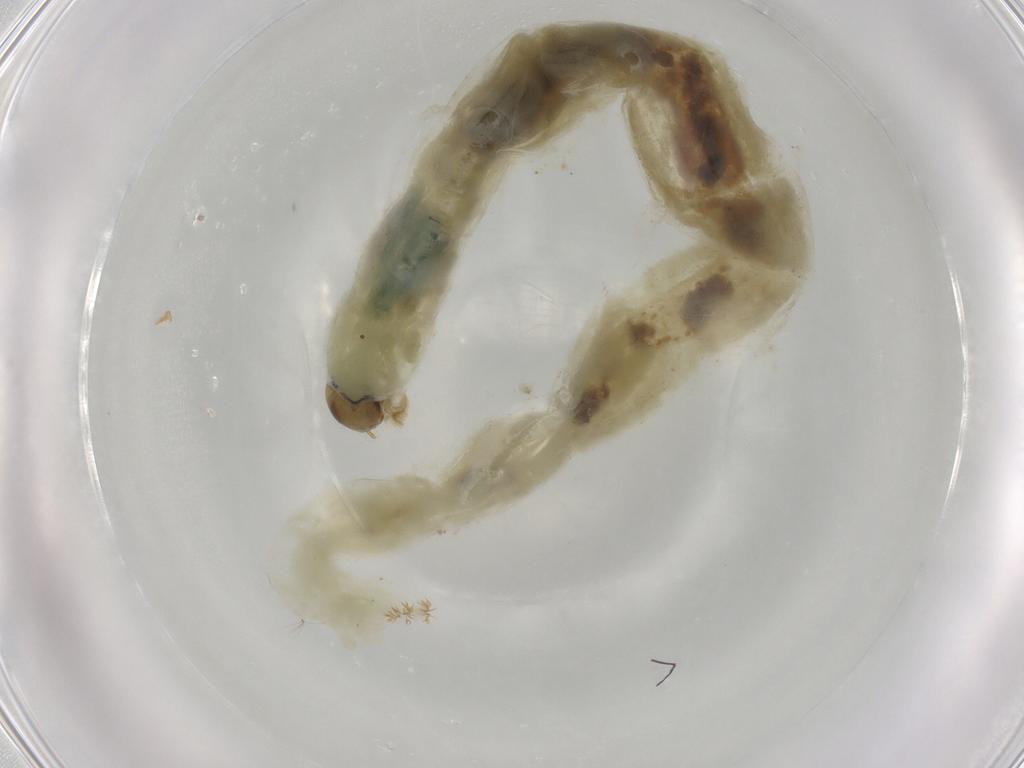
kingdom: Animalia
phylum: Arthropoda
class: Insecta
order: Diptera
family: Chironomidae
